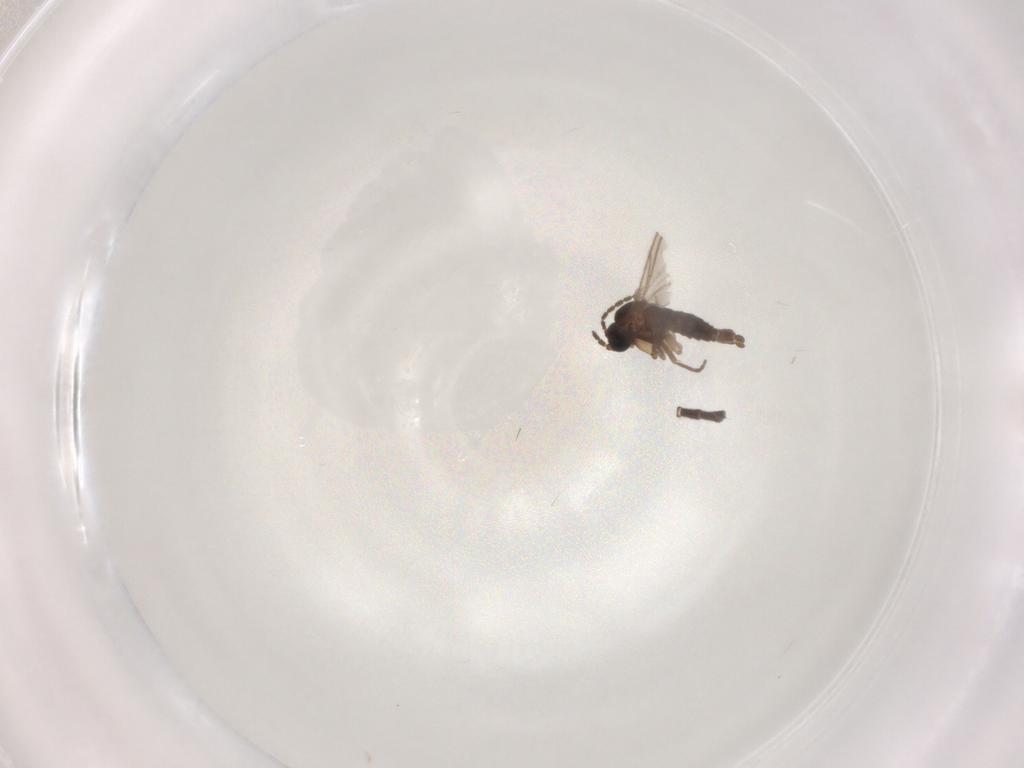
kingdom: Animalia
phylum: Arthropoda
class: Insecta
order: Diptera
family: Sciaridae
